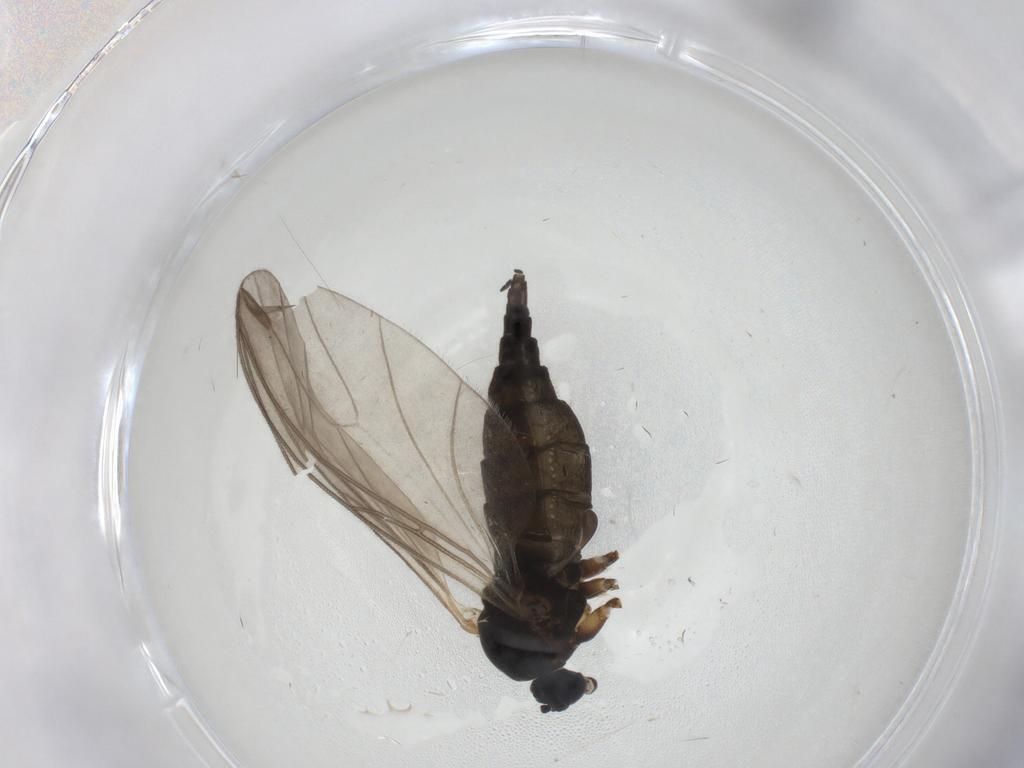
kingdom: Animalia
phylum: Arthropoda
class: Insecta
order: Diptera
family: Sciaridae
